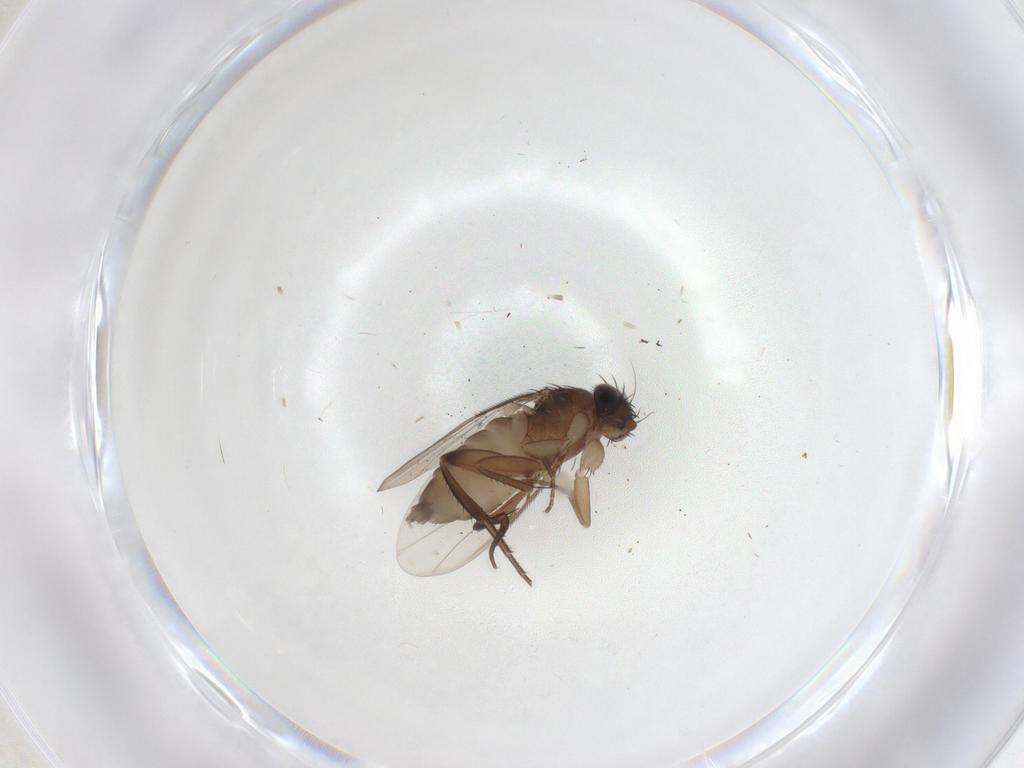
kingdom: Animalia
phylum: Arthropoda
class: Insecta
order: Diptera
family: Phoridae
